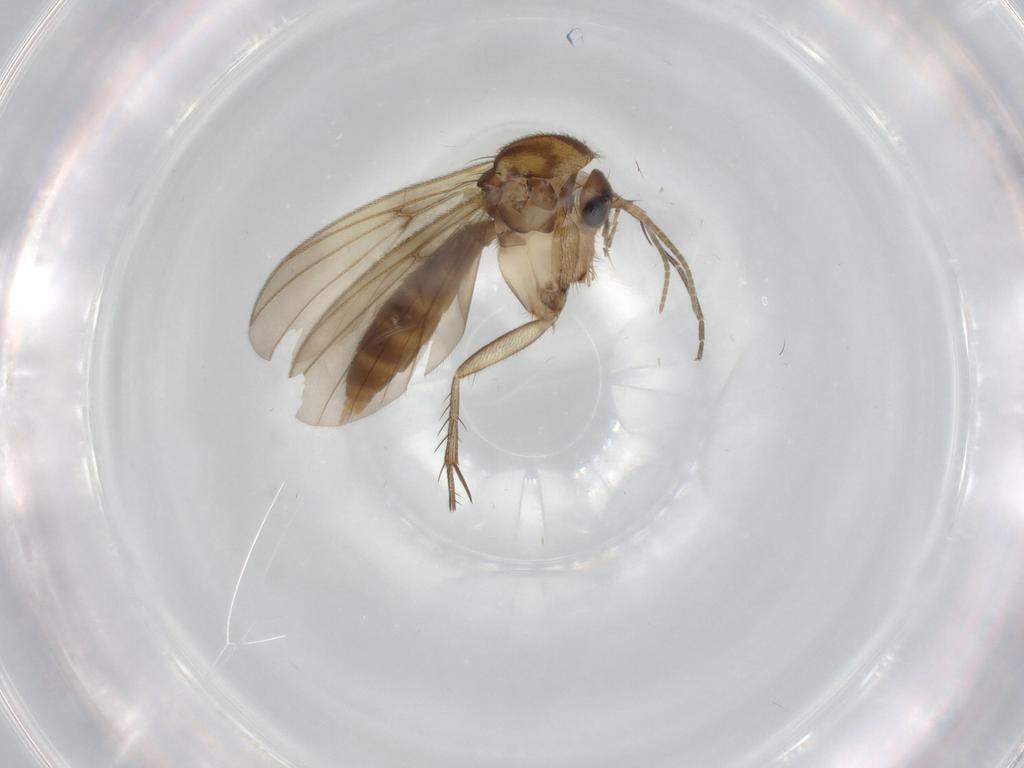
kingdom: Animalia
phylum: Arthropoda
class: Insecta
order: Diptera
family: Mycetophilidae
